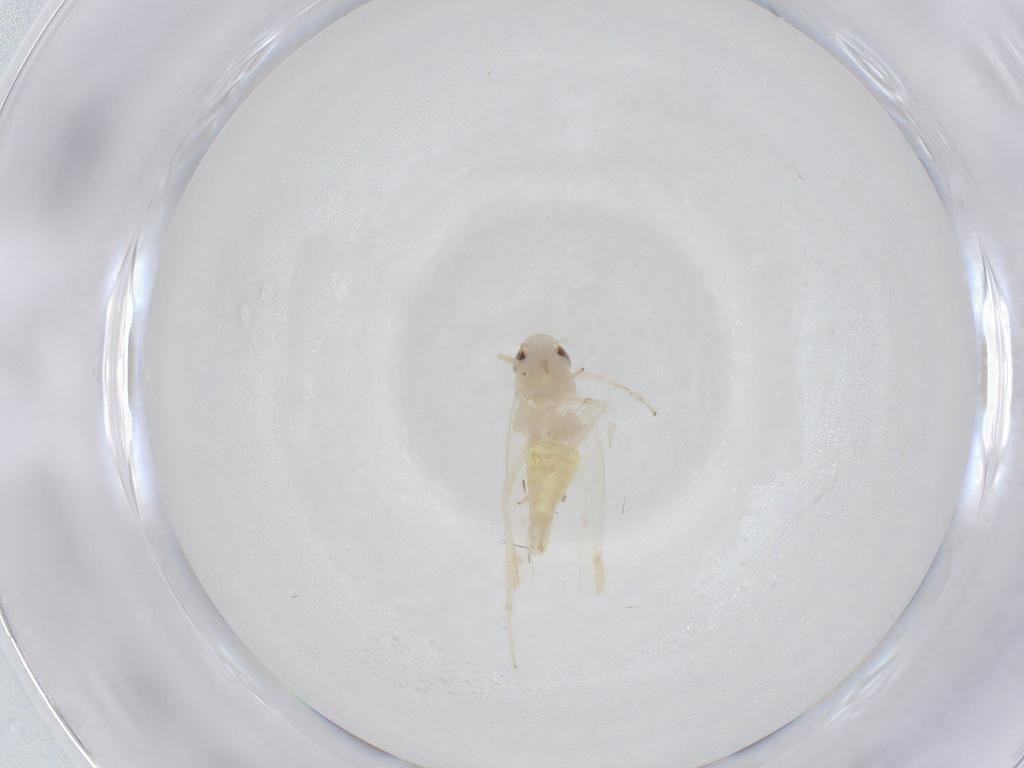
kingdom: Animalia
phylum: Arthropoda
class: Insecta
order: Hemiptera
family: Cicadellidae
